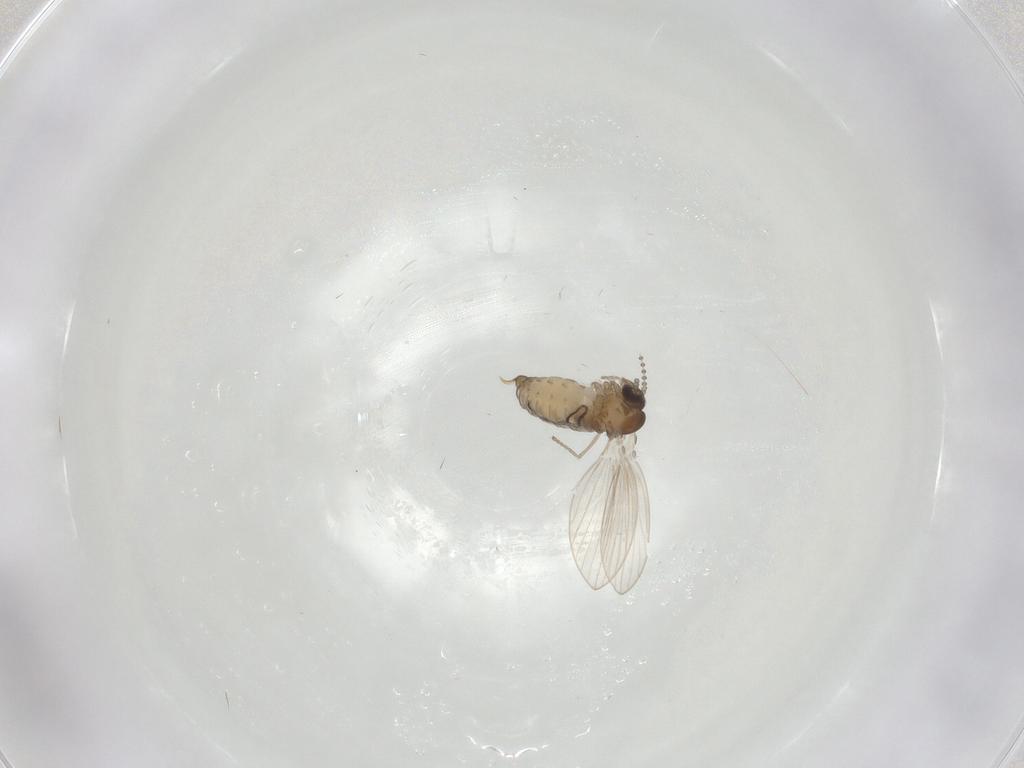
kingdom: Animalia
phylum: Arthropoda
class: Insecta
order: Diptera
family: Psychodidae
